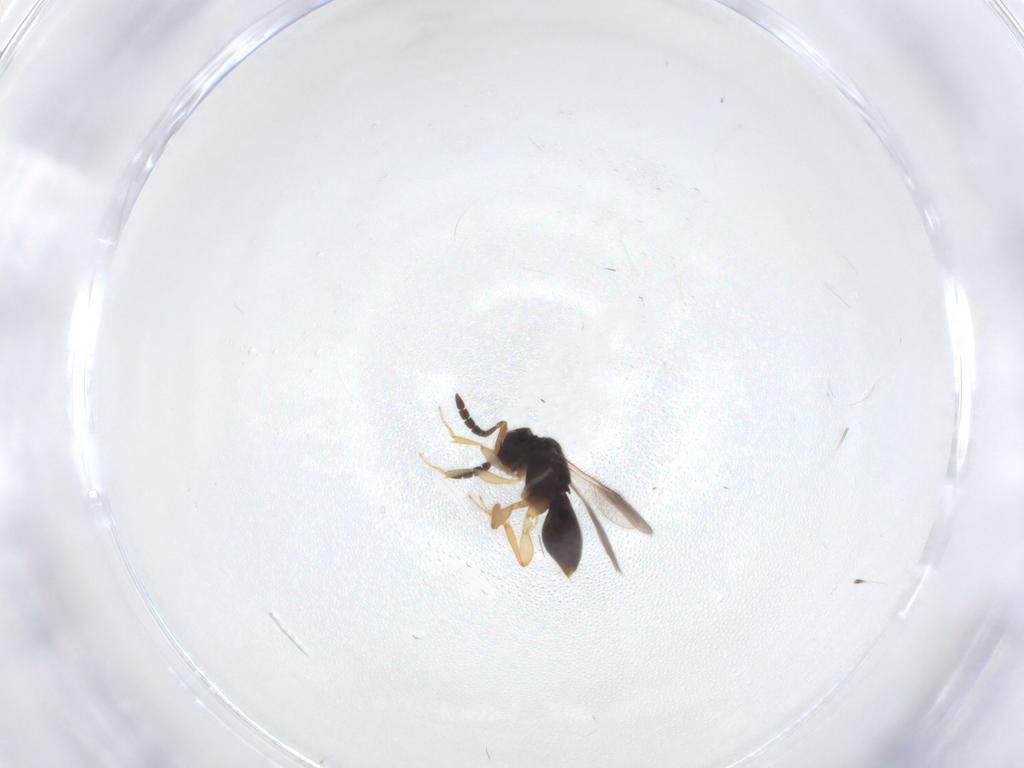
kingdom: Animalia
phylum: Arthropoda
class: Insecta
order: Hymenoptera
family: Ceraphronidae
